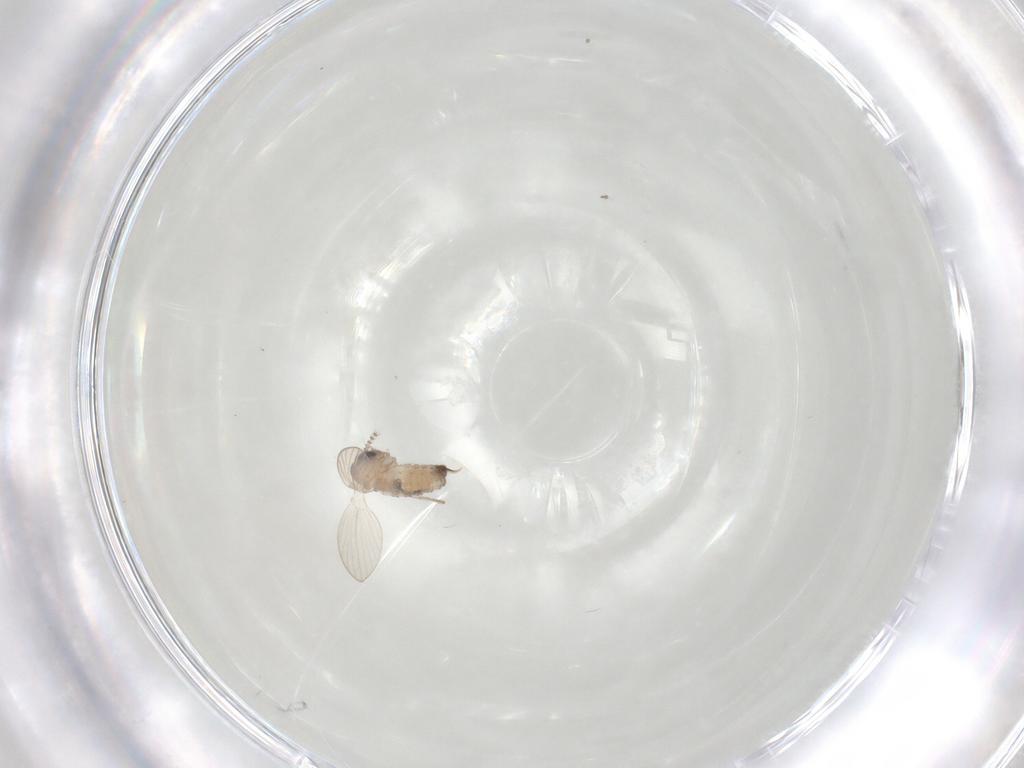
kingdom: Animalia
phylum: Arthropoda
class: Insecta
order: Diptera
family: Psychodidae
